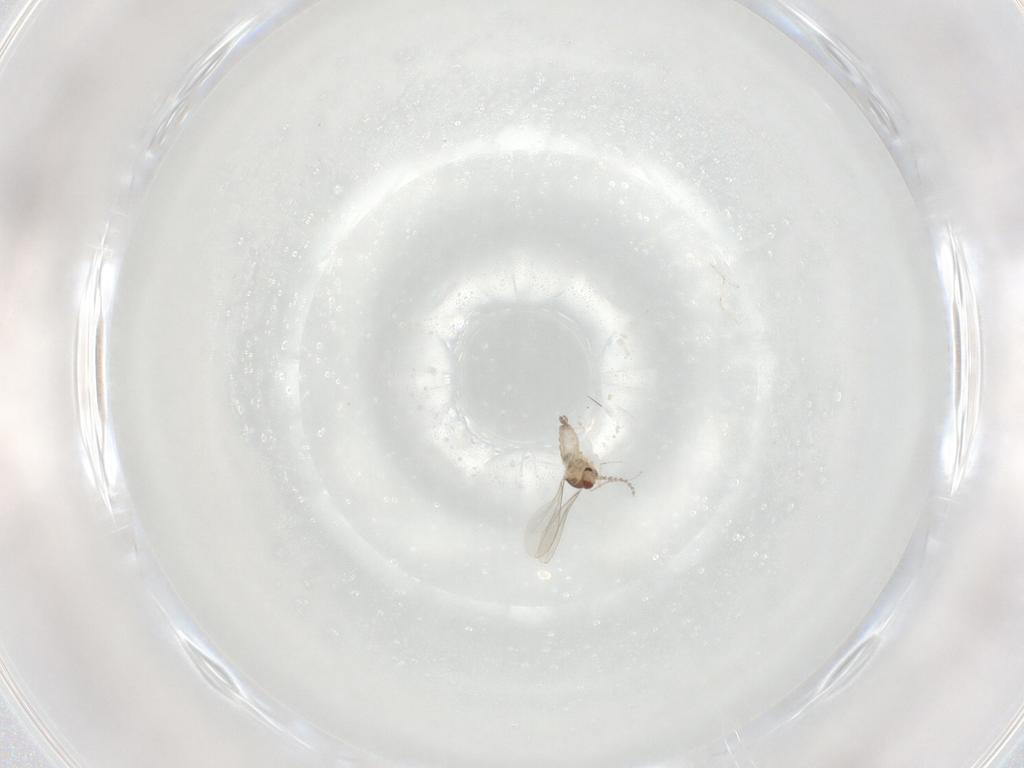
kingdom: Animalia
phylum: Arthropoda
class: Insecta
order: Diptera
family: Cecidomyiidae
